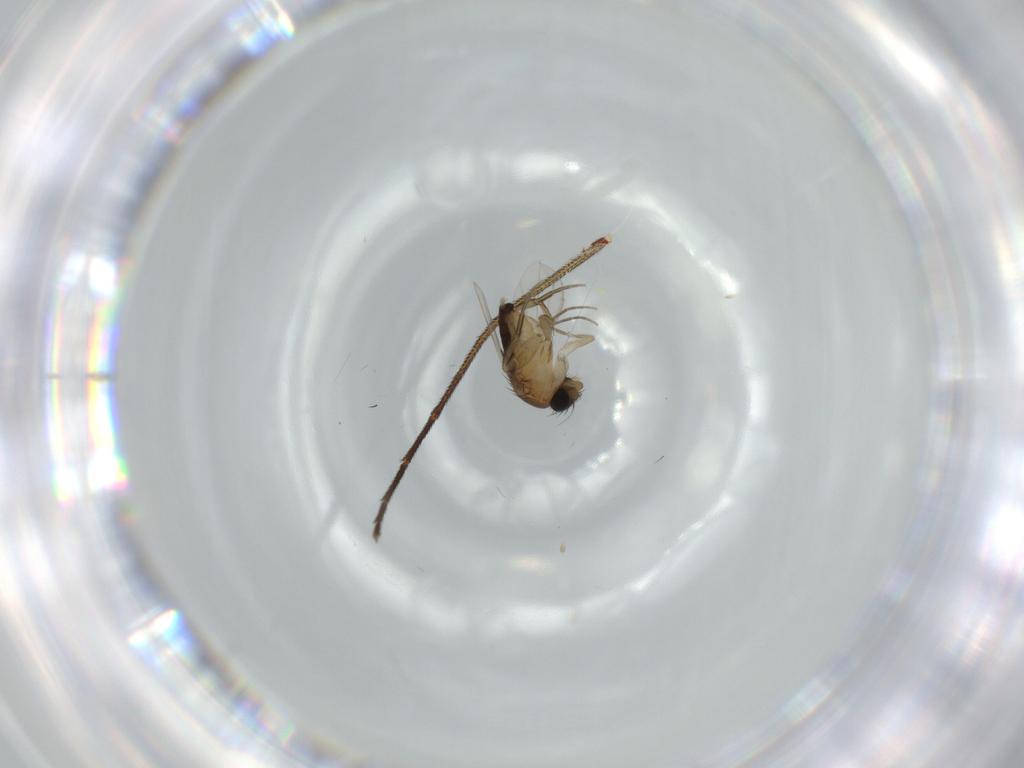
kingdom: Animalia
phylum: Arthropoda
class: Insecta
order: Diptera
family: Dolichopodidae
